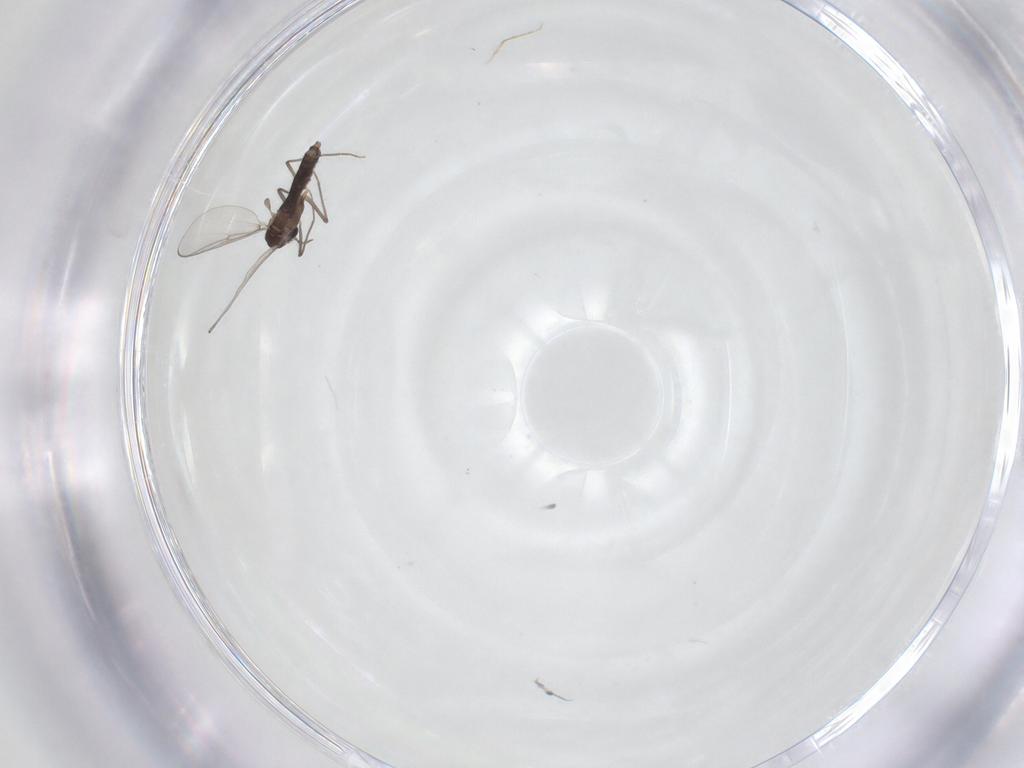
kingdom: Animalia
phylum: Arthropoda
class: Insecta
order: Diptera
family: Chironomidae
